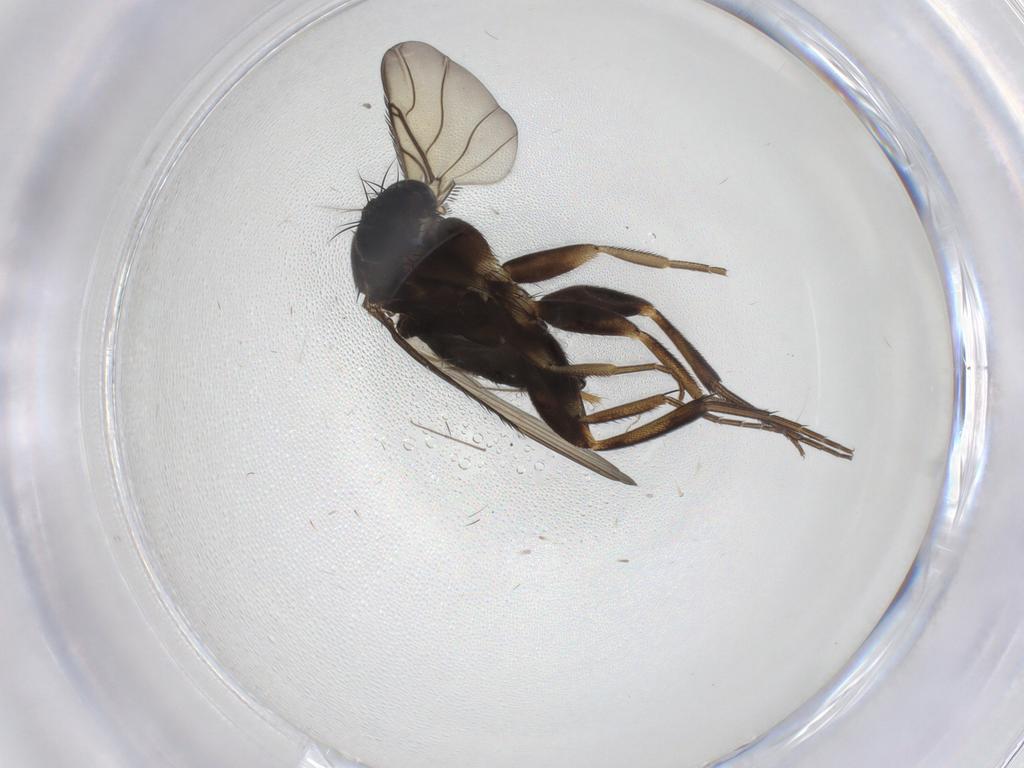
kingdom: Animalia
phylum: Arthropoda
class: Insecta
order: Diptera
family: Phoridae
